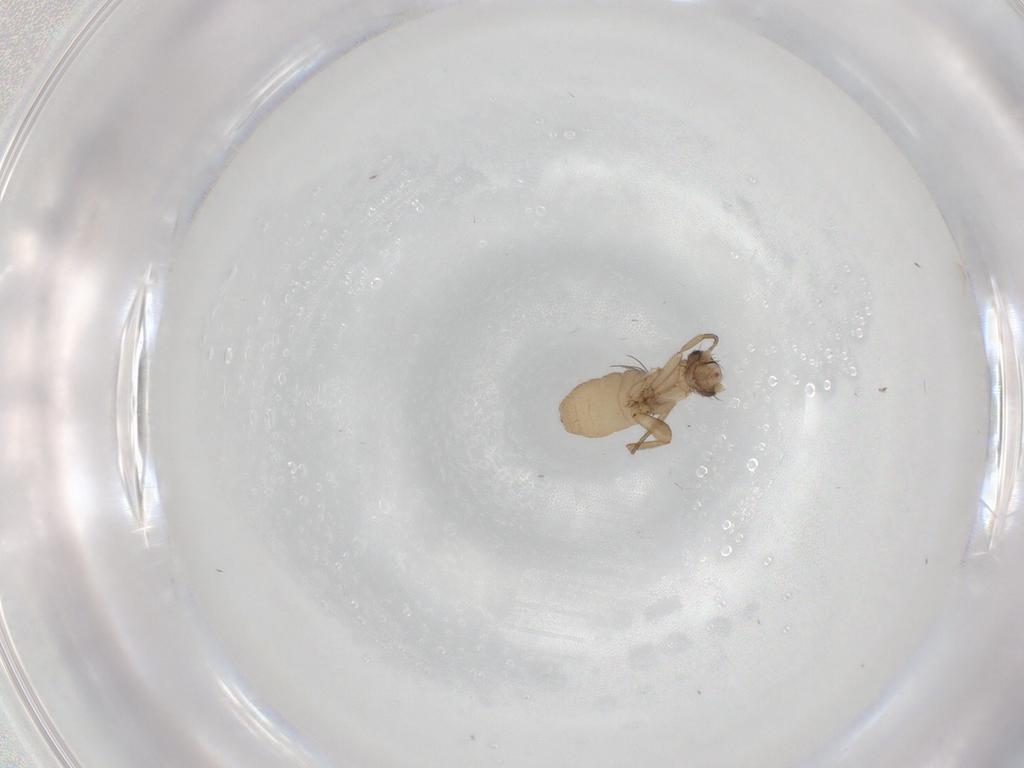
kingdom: Animalia
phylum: Arthropoda
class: Insecta
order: Diptera
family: Phoridae
